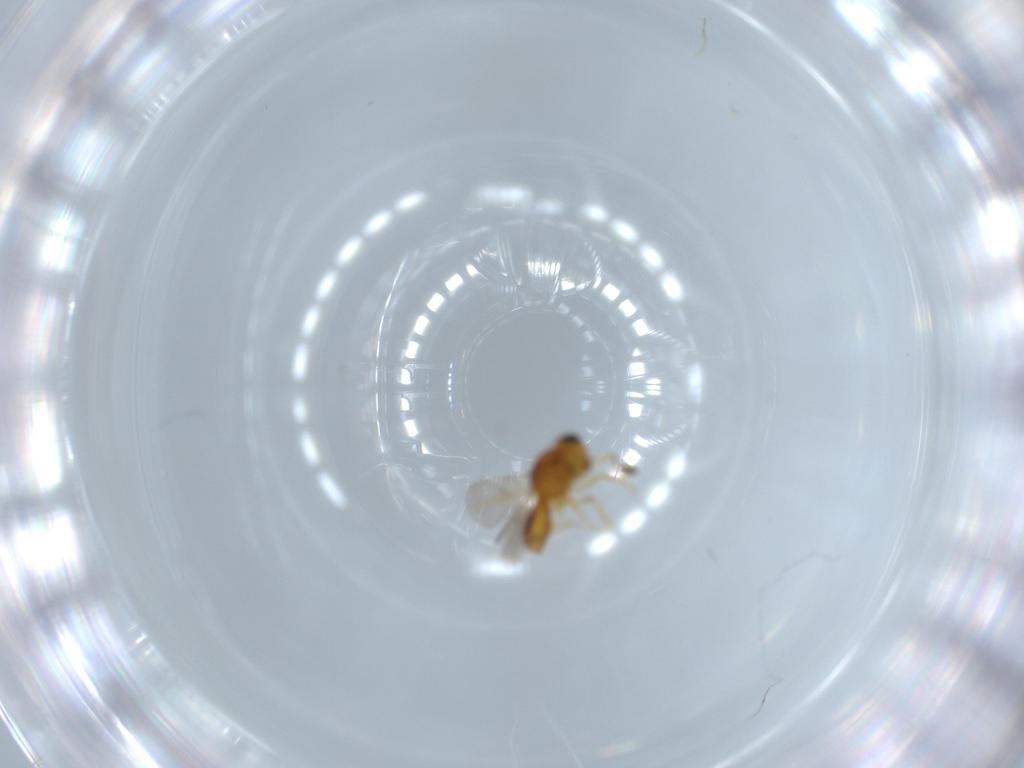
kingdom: Animalia
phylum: Arthropoda
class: Insecta
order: Hymenoptera
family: Scelionidae
